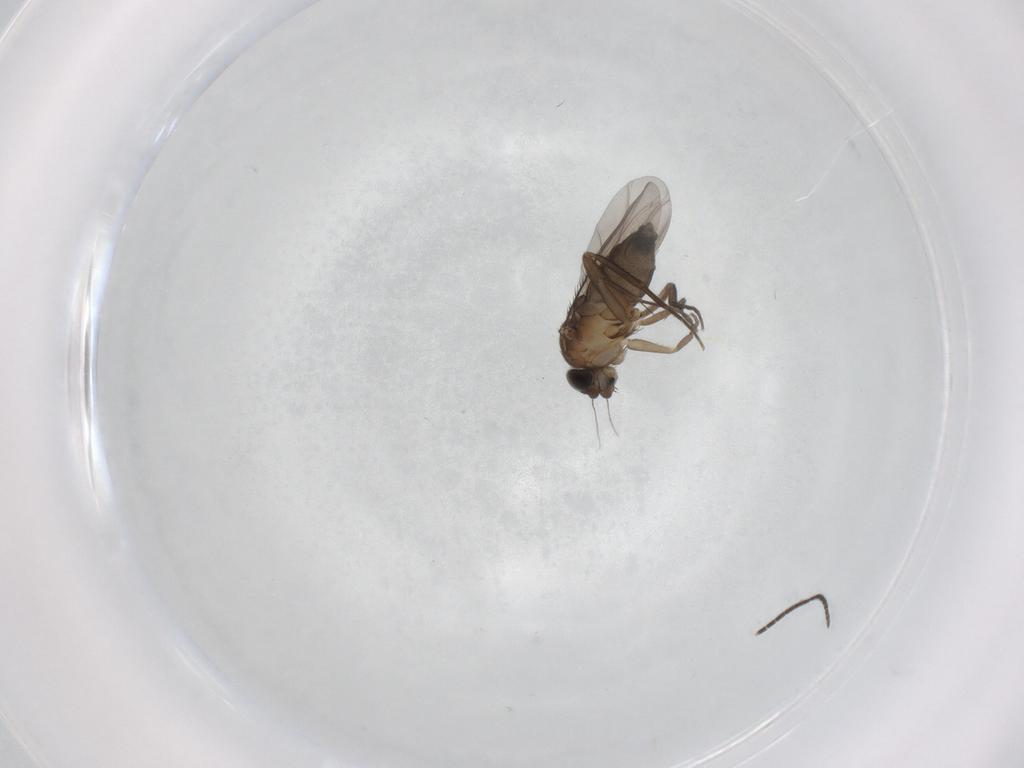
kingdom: Animalia
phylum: Arthropoda
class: Insecta
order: Diptera
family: Phoridae
